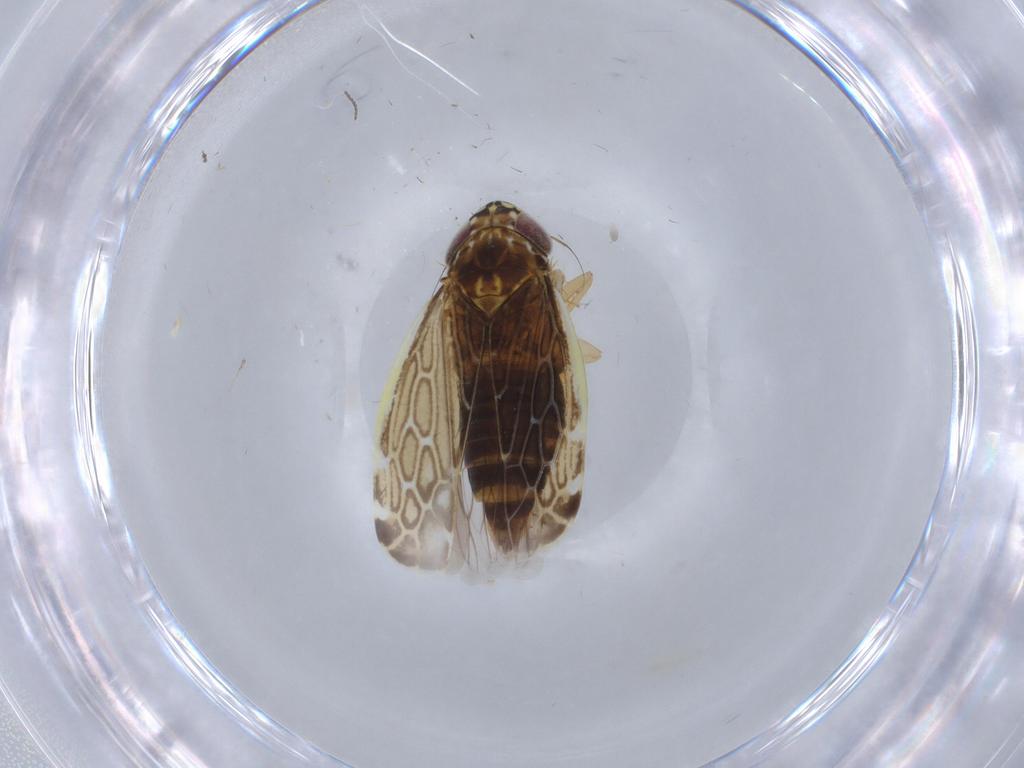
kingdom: Animalia
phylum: Arthropoda
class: Insecta
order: Hemiptera
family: Cicadellidae
